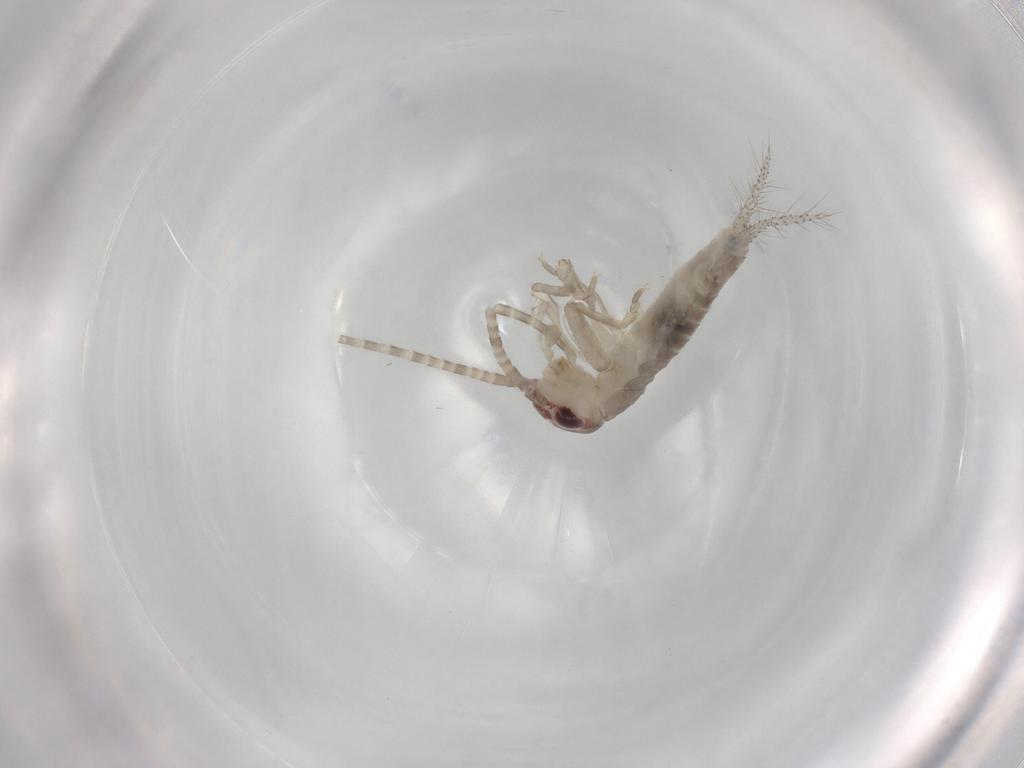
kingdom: Animalia
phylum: Arthropoda
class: Insecta
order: Orthoptera
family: Gryllidae
